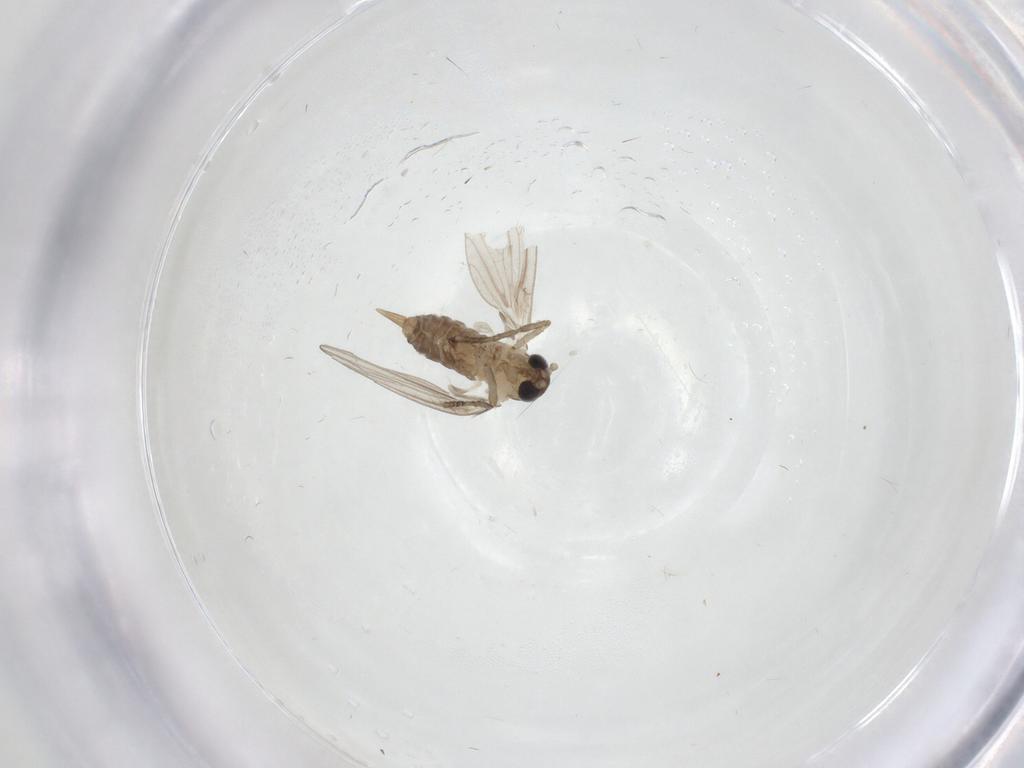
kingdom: Animalia
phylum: Arthropoda
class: Insecta
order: Diptera
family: Psychodidae
